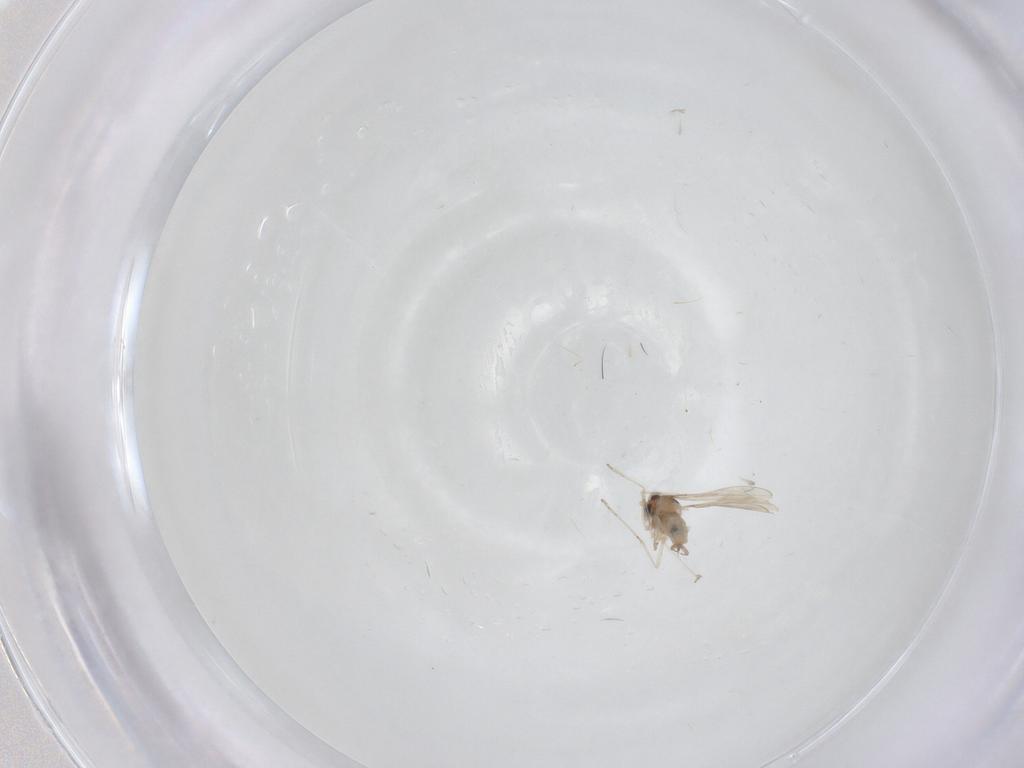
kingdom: Animalia
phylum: Arthropoda
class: Insecta
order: Diptera
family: Cecidomyiidae
